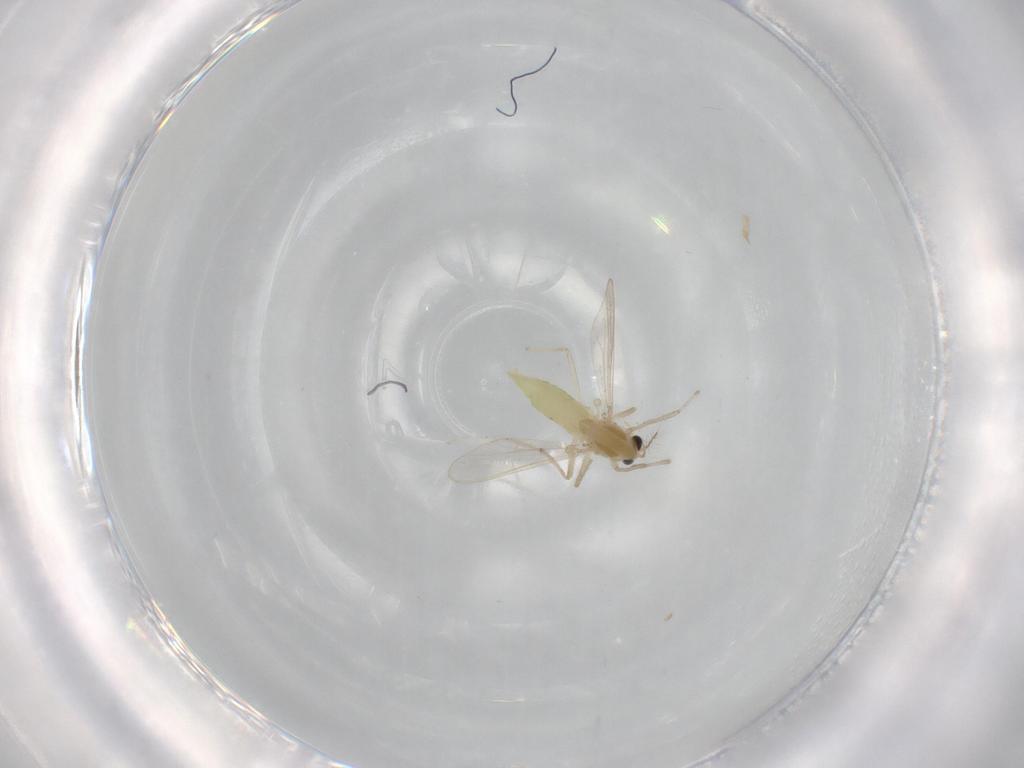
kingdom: Animalia
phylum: Arthropoda
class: Insecta
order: Diptera
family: Chironomidae
